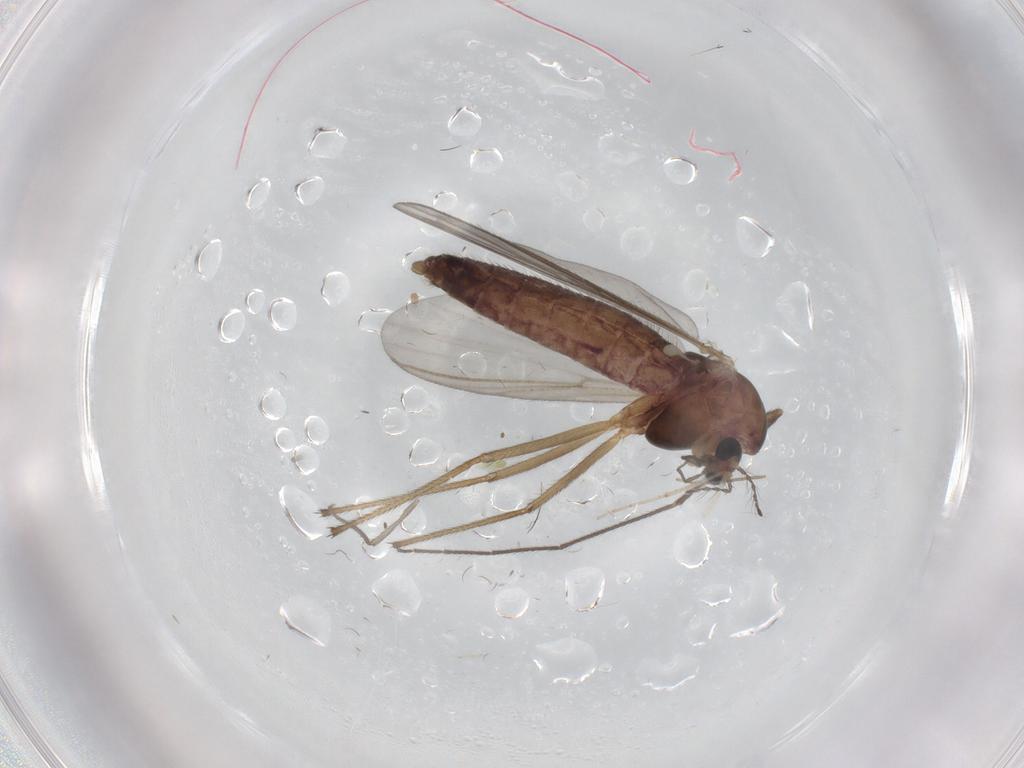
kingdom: Animalia
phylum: Arthropoda
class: Insecta
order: Diptera
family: Chironomidae
